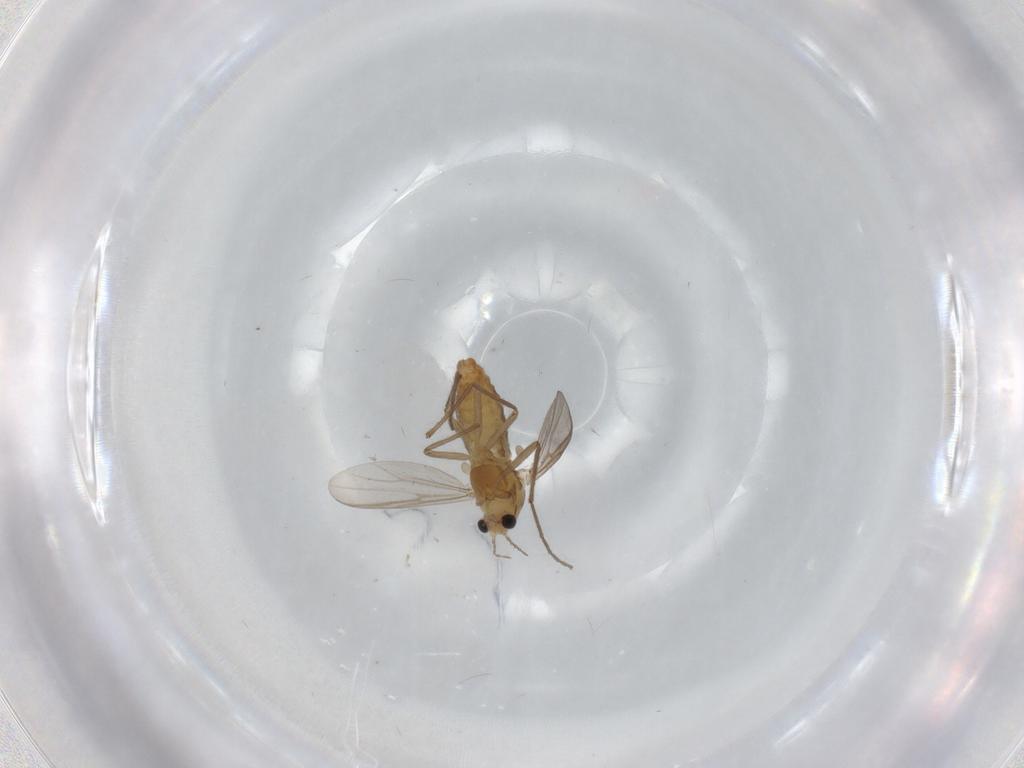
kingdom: Animalia
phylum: Arthropoda
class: Insecta
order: Diptera
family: Chironomidae
